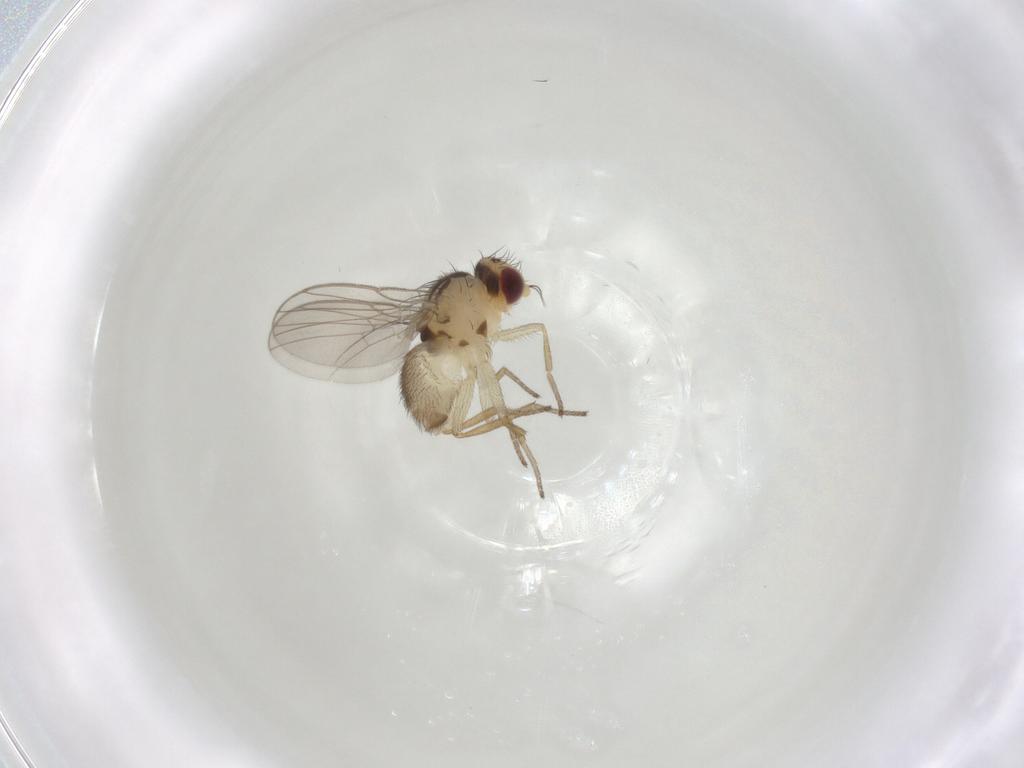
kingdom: Animalia
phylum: Arthropoda
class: Insecta
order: Diptera
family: Agromyzidae
